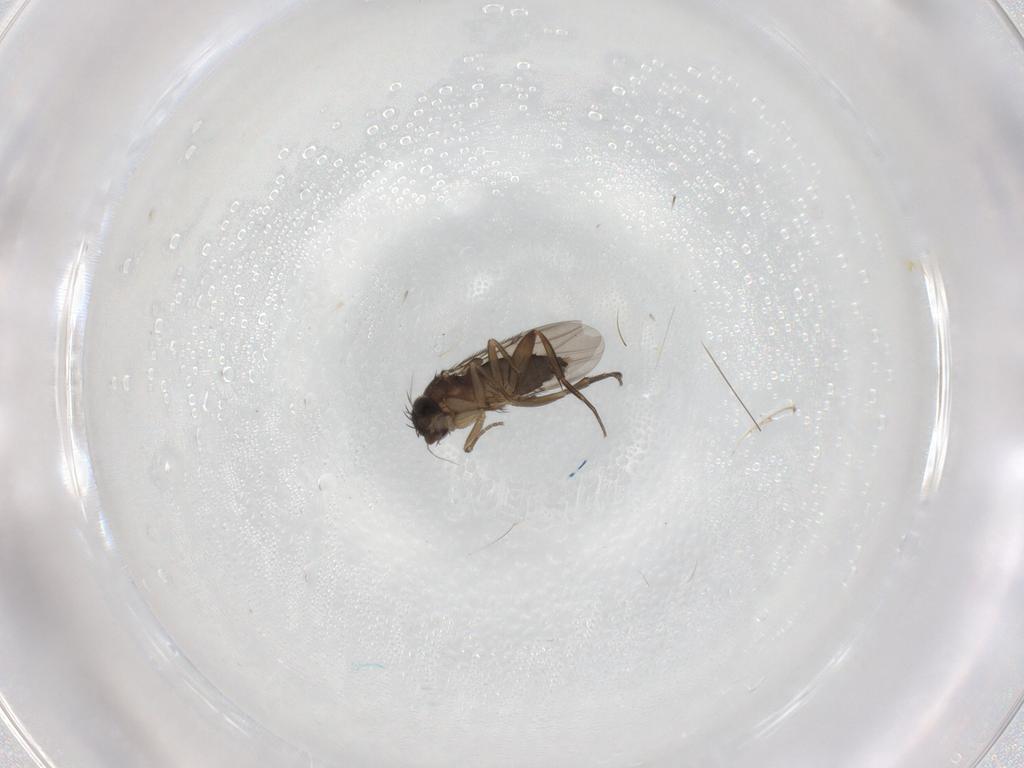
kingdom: Animalia
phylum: Arthropoda
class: Insecta
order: Diptera
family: Phoridae
